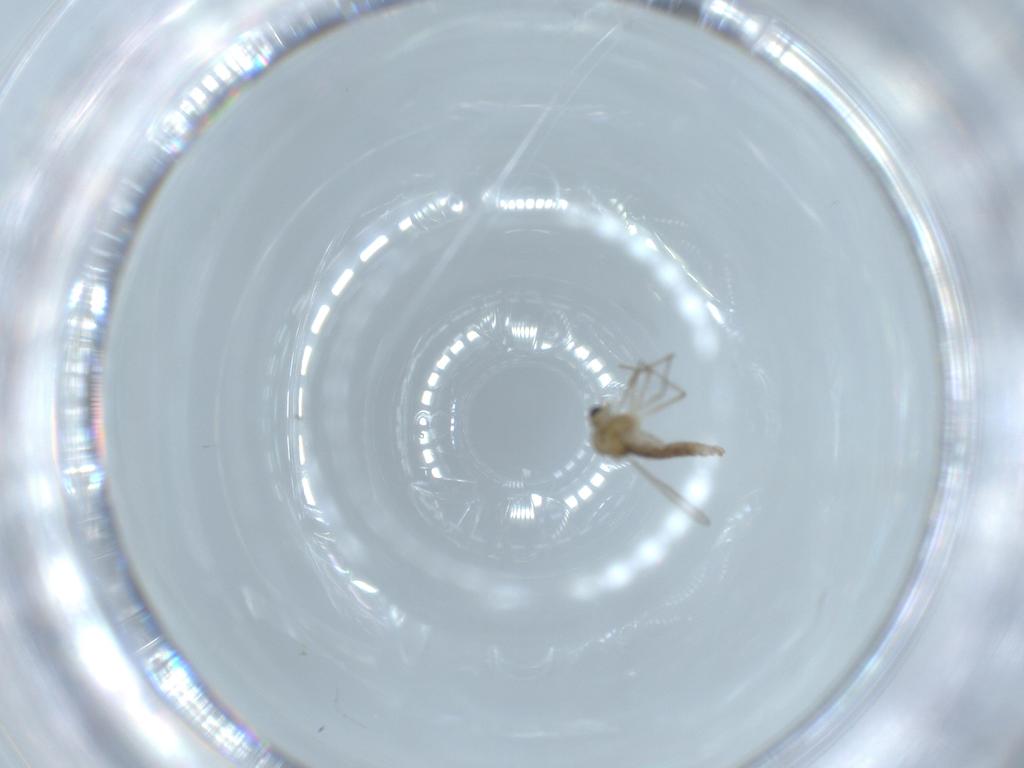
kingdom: Animalia
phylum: Arthropoda
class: Insecta
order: Diptera
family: Chironomidae
